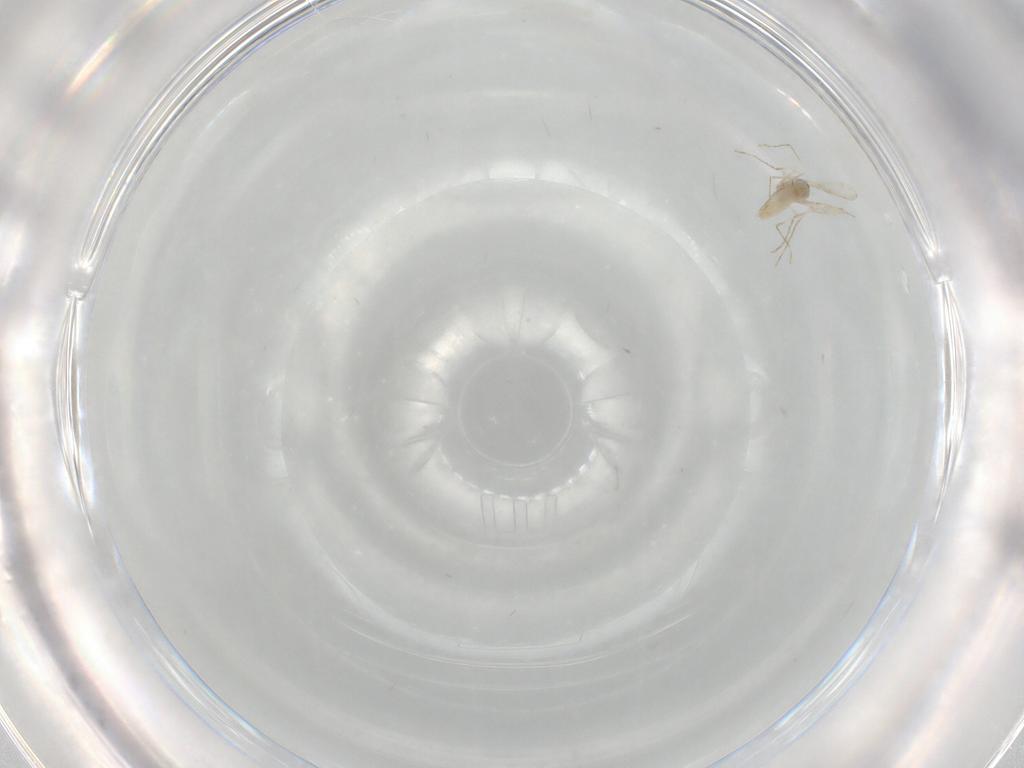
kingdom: Animalia
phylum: Arthropoda
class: Insecta
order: Diptera
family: Chironomidae
